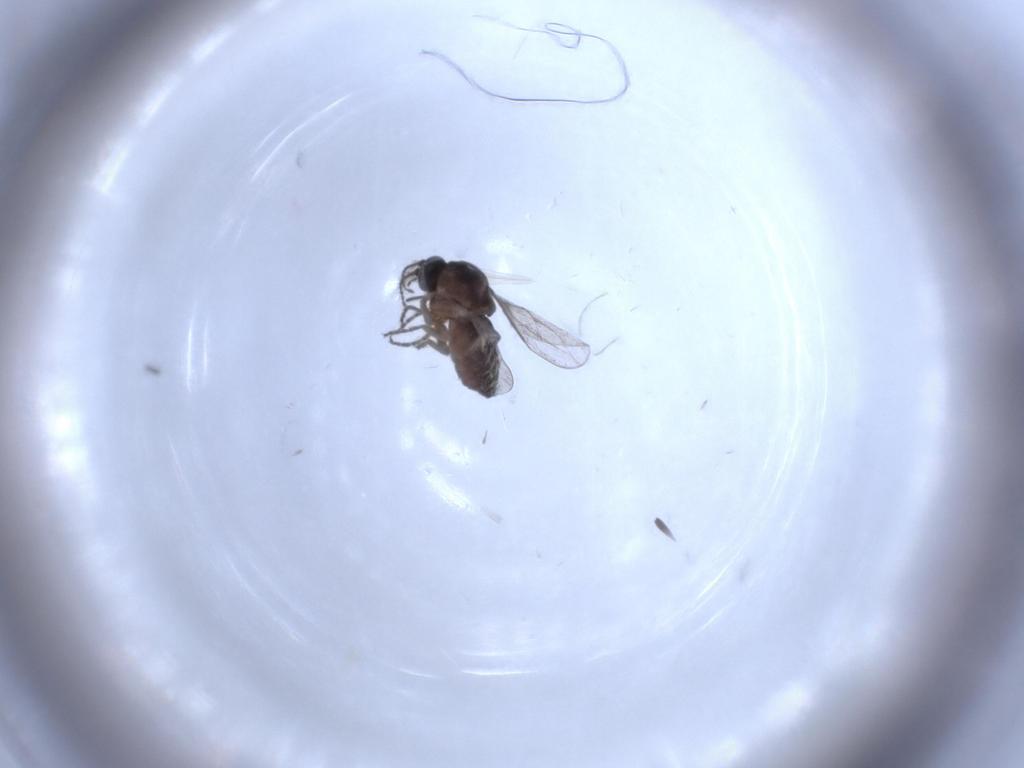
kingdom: Animalia
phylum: Arthropoda
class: Insecta
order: Diptera
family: Ceratopogonidae
